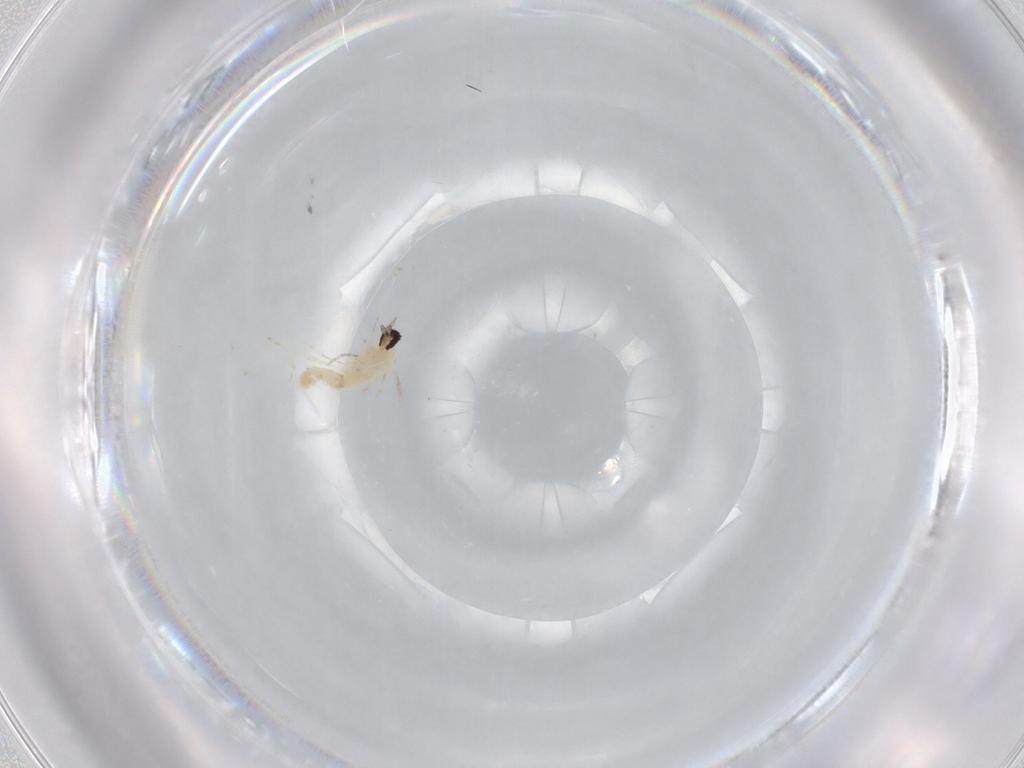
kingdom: Animalia
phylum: Arthropoda
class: Insecta
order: Diptera
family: Cecidomyiidae
